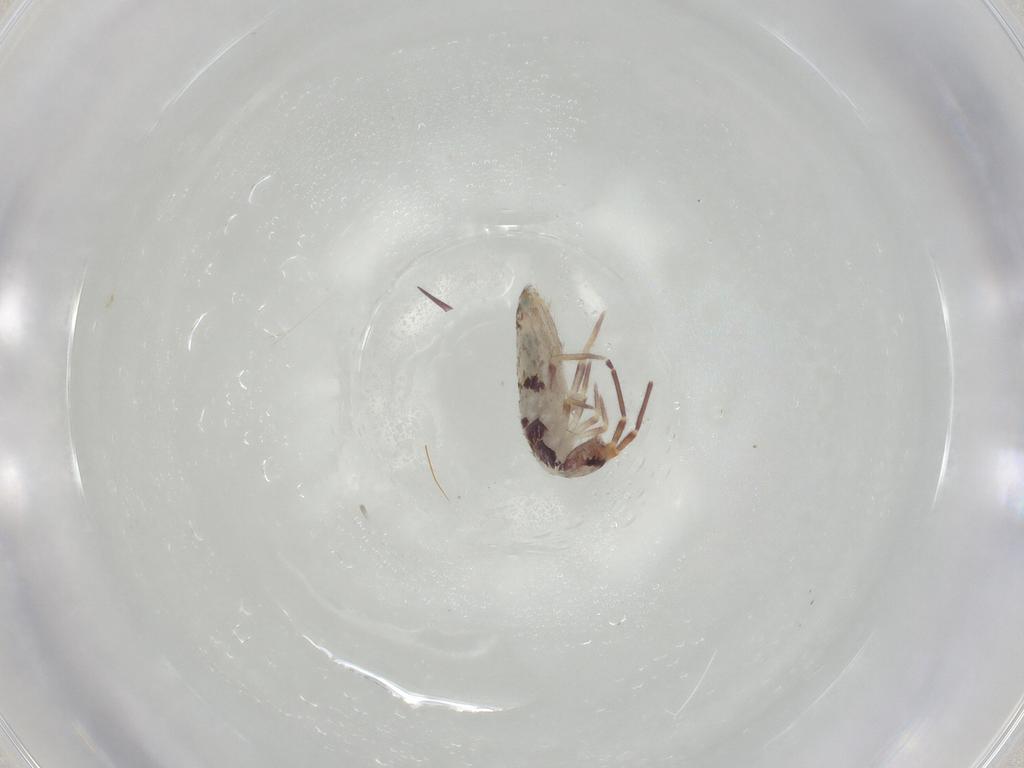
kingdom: Animalia
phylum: Arthropoda
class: Collembola
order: Entomobryomorpha
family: Entomobryidae
